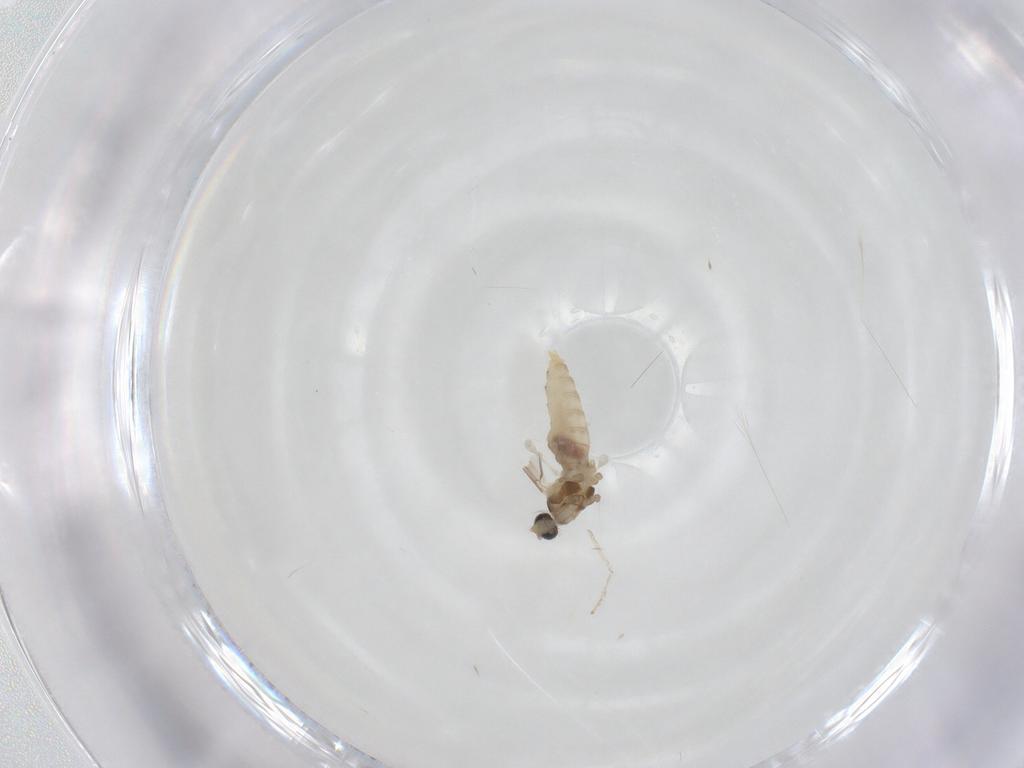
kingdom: Animalia
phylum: Arthropoda
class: Insecta
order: Diptera
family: Cecidomyiidae
